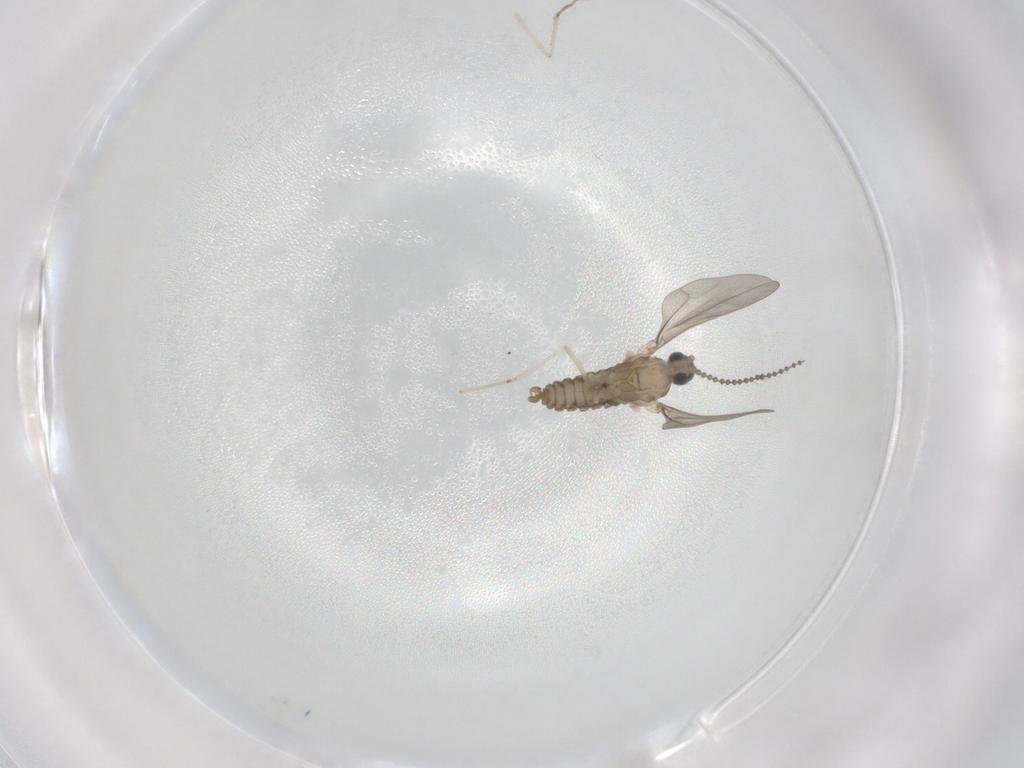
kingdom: Animalia
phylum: Arthropoda
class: Insecta
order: Diptera
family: Cecidomyiidae
